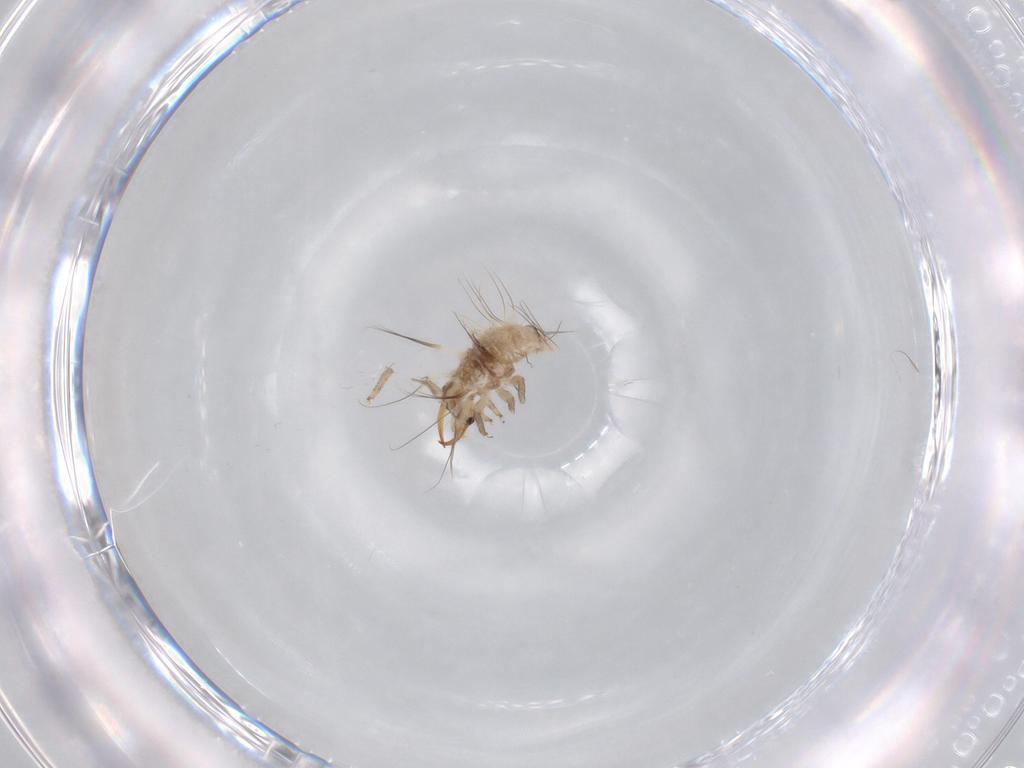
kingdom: Animalia
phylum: Arthropoda
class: Insecta
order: Neuroptera
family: Chrysopidae
